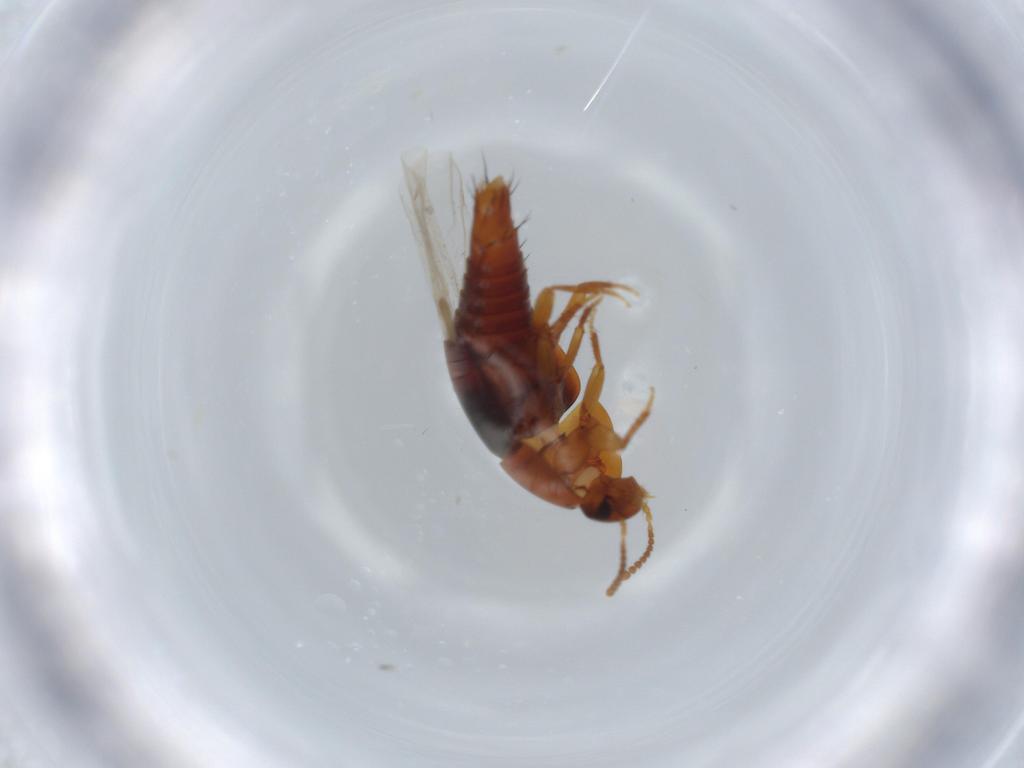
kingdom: Animalia
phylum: Arthropoda
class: Insecta
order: Coleoptera
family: Staphylinidae
